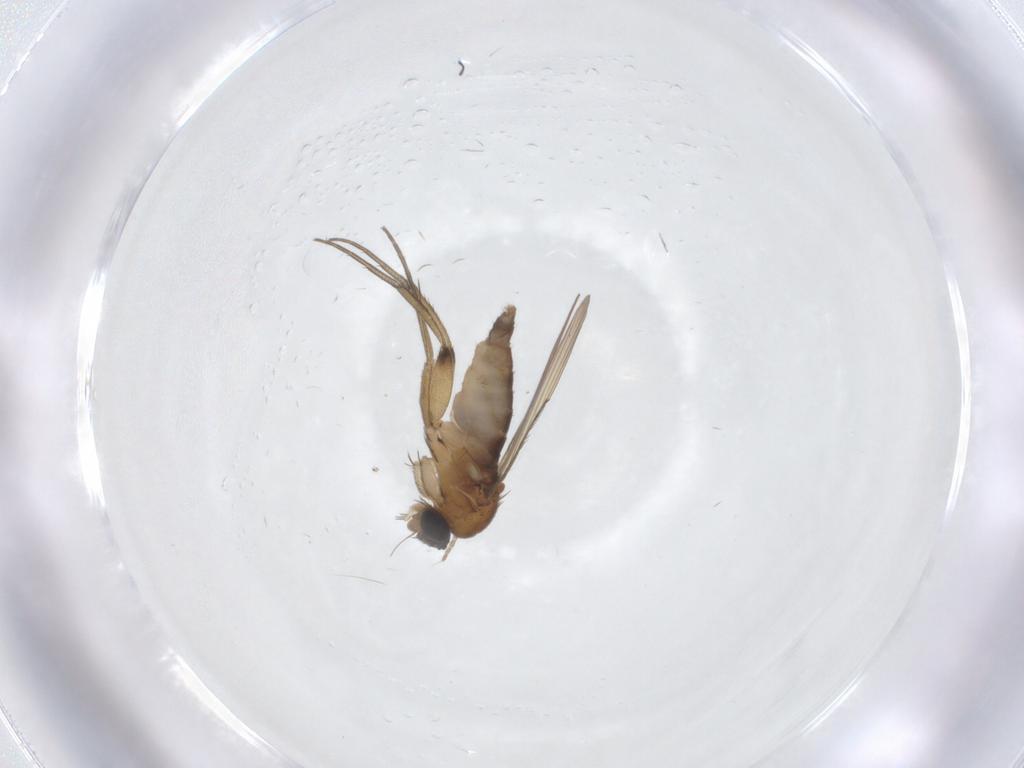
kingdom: Animalia
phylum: Arthropoda
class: Insecta
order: Diptera
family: Phoridae
